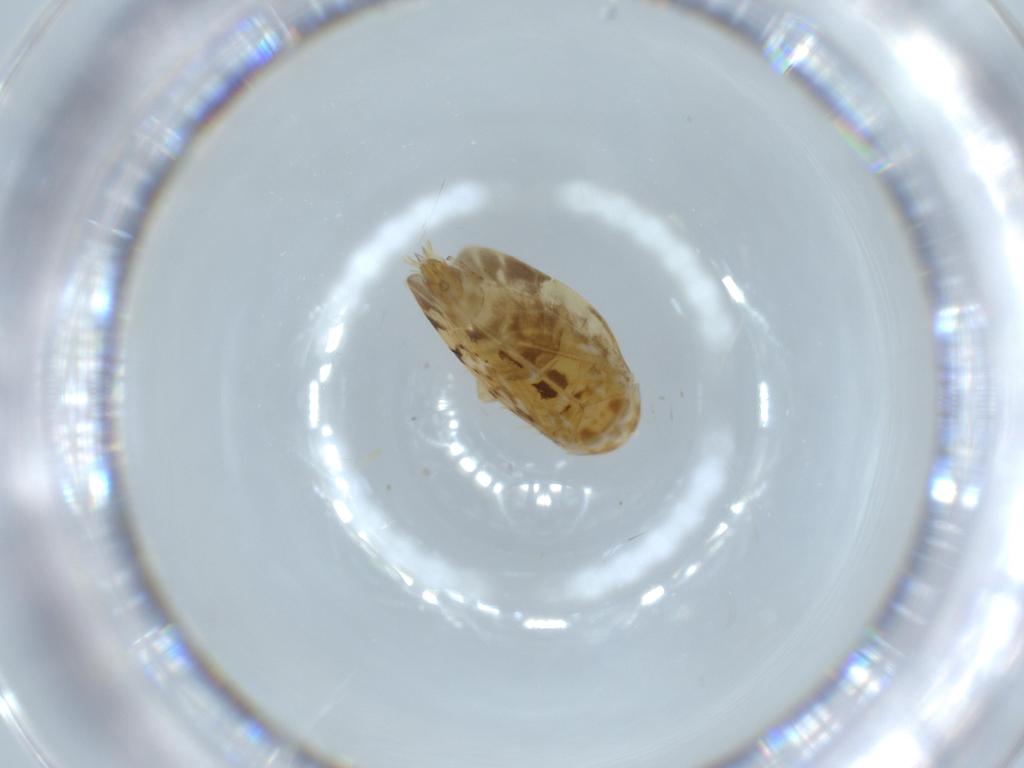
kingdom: Animalia
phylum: Arthropoda
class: Insecta
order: Hemiptera
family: Cicadellidae
